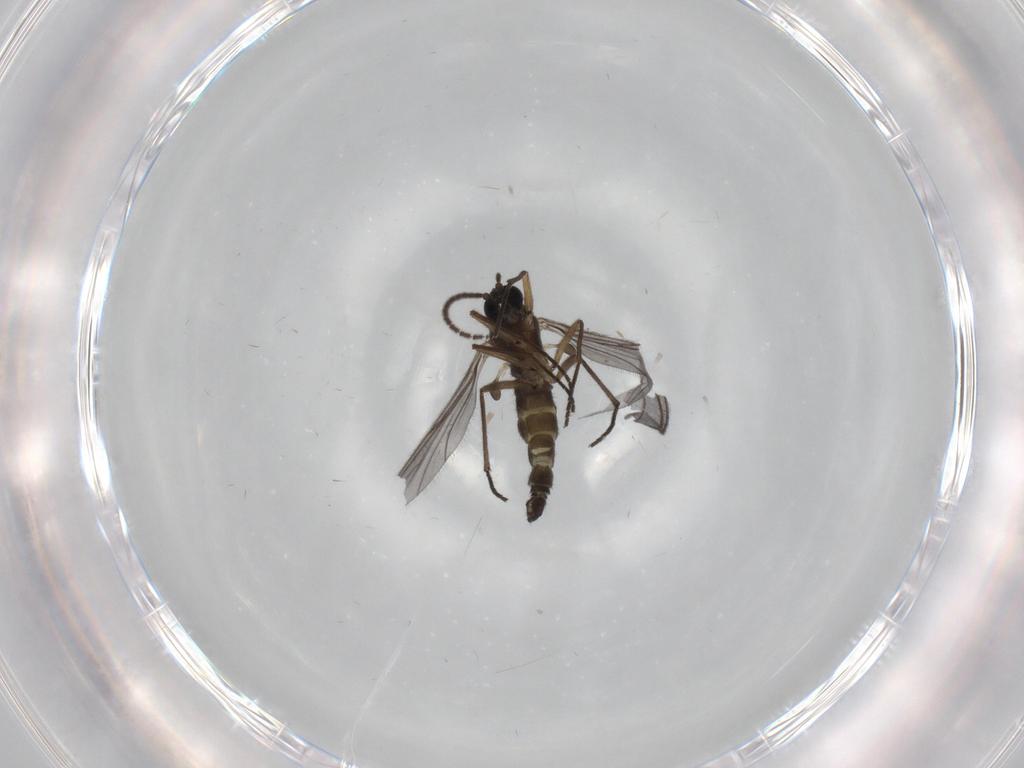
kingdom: Animalia
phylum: Arthropoda
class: Insecta
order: Diptera
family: Sciaridae
